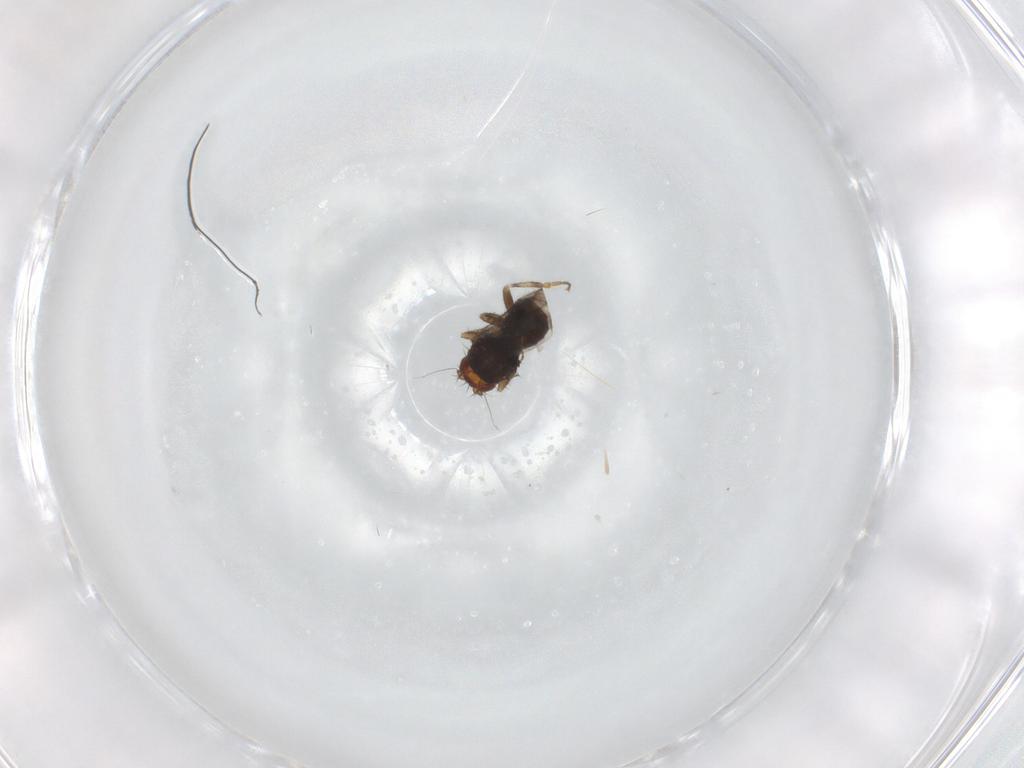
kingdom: Animalia
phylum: Arthropoda
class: Insecta
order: Diptera
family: Sphaeroceridae
